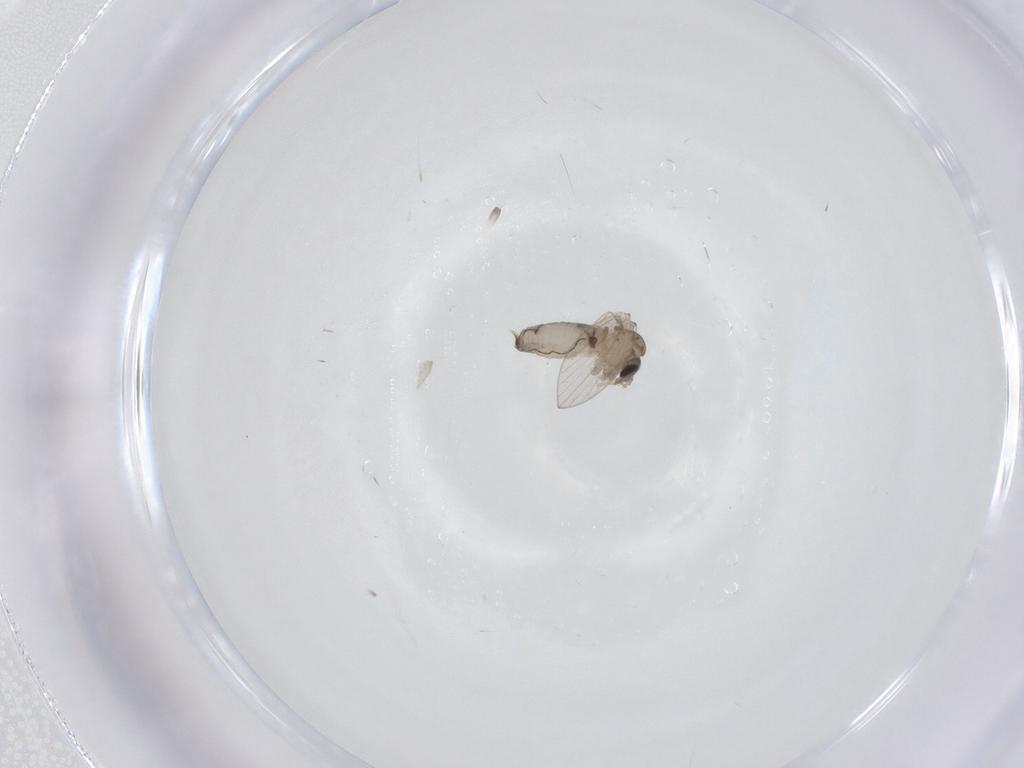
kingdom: Animalia
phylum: Arthropoda
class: Insecta
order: Diptera
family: Psychodidae
